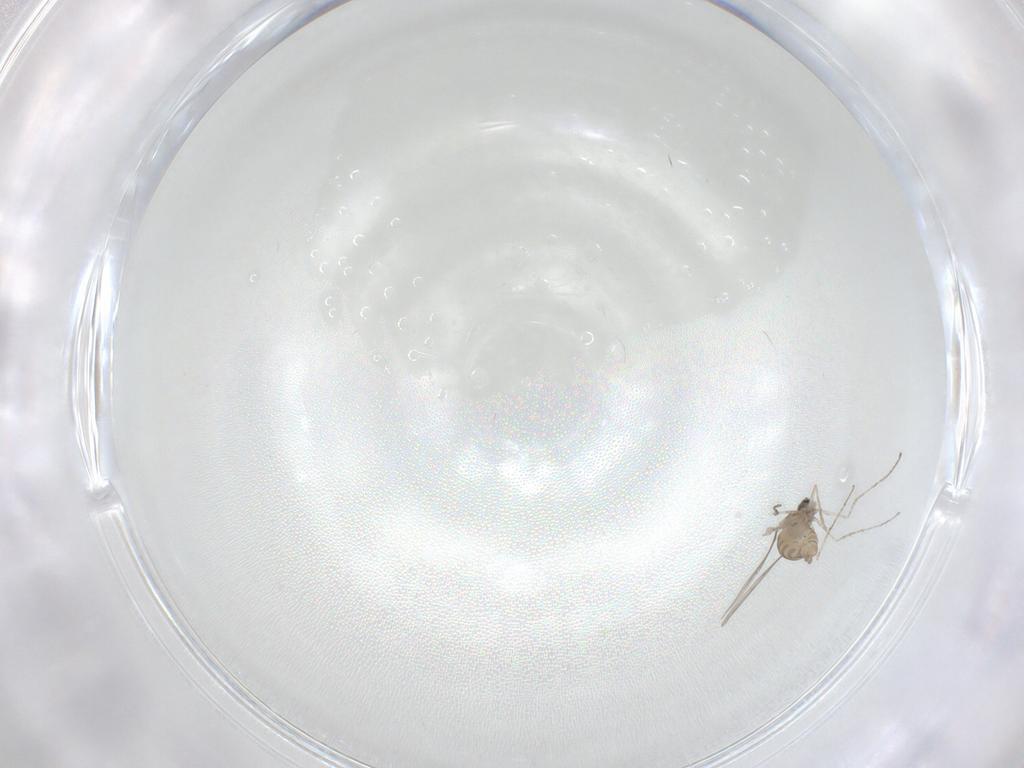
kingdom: Animalia
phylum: Arthropoda
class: Insecta
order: Diptera
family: Cecidomyiidae
